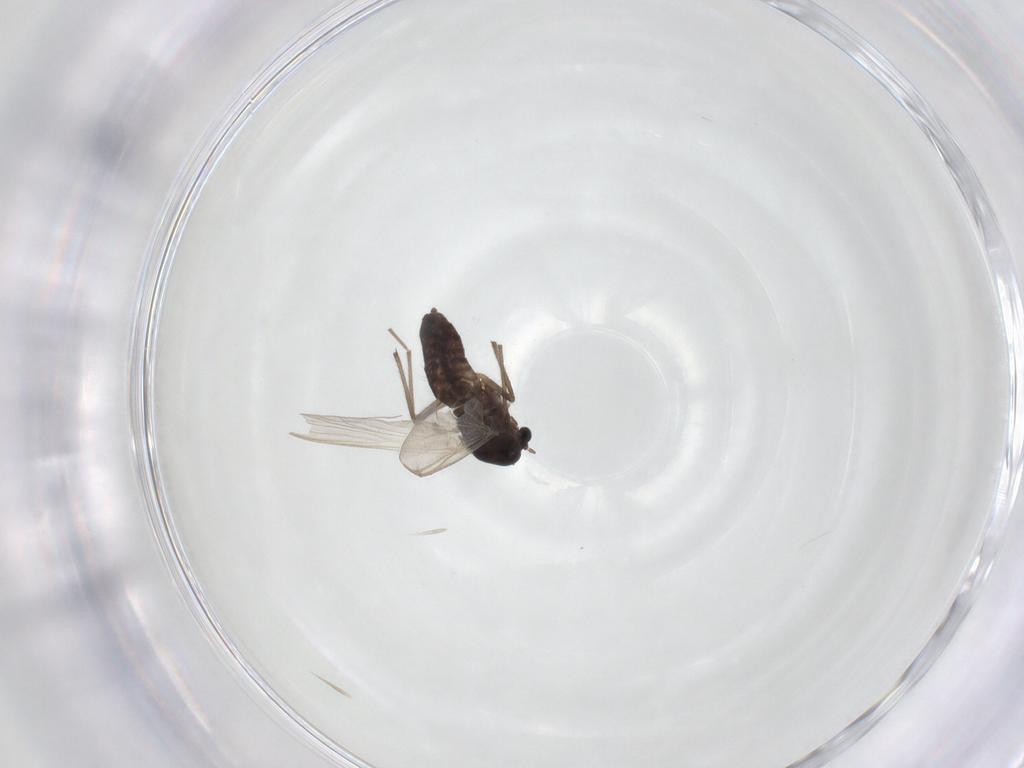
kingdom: Animalia
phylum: Arthropoda
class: Insecta
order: Diptera
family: Chironomidae
